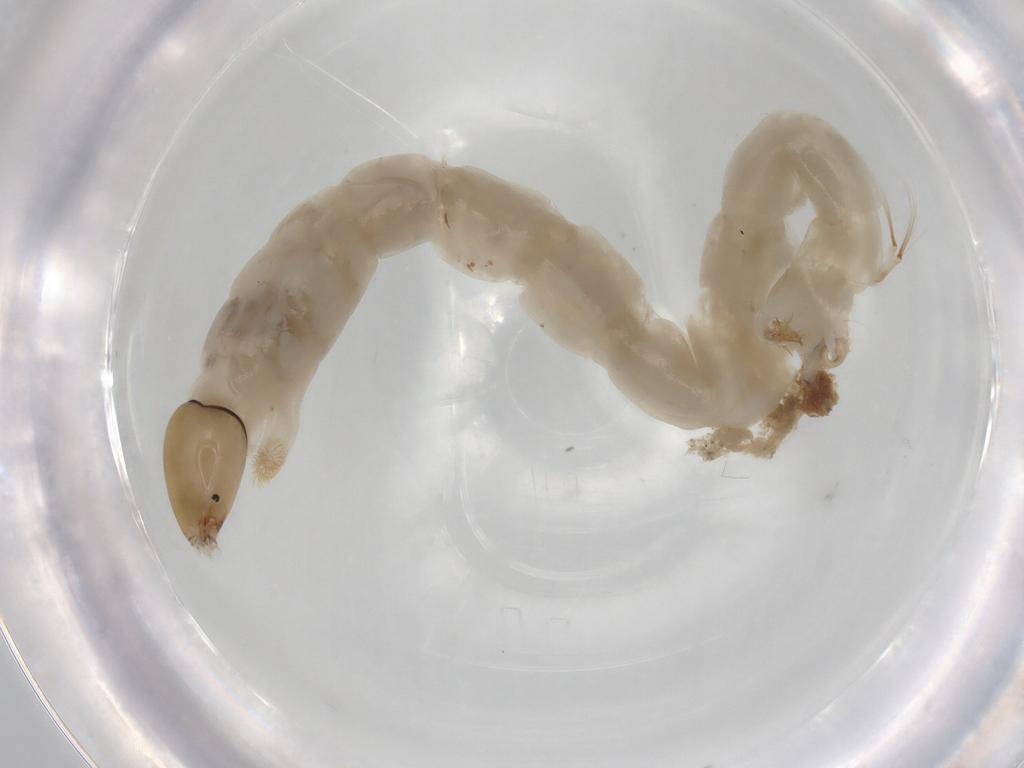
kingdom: Animalia
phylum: Arthropoda
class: Insecta
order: Diptera
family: Chironomidae
